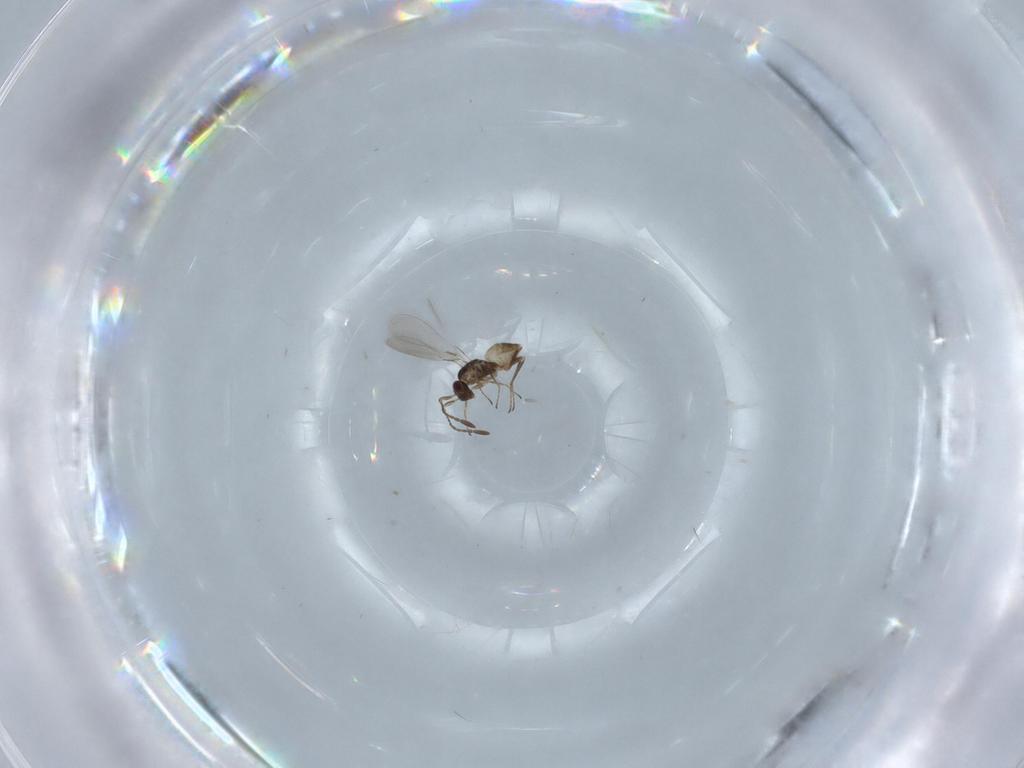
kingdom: Animalia
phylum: Arthropoda
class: Insecta
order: Hymenoptera
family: Mymaridae
